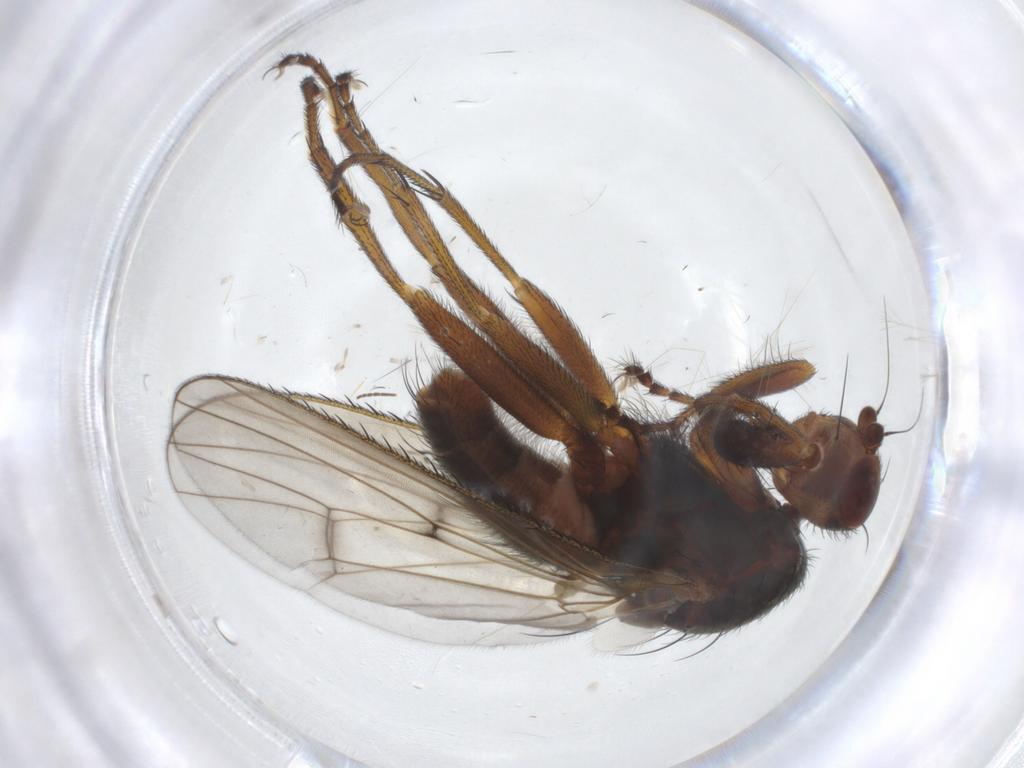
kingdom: Animalia
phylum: Arthropoda
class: Insecta
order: Diptera
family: Heleomyzidae
